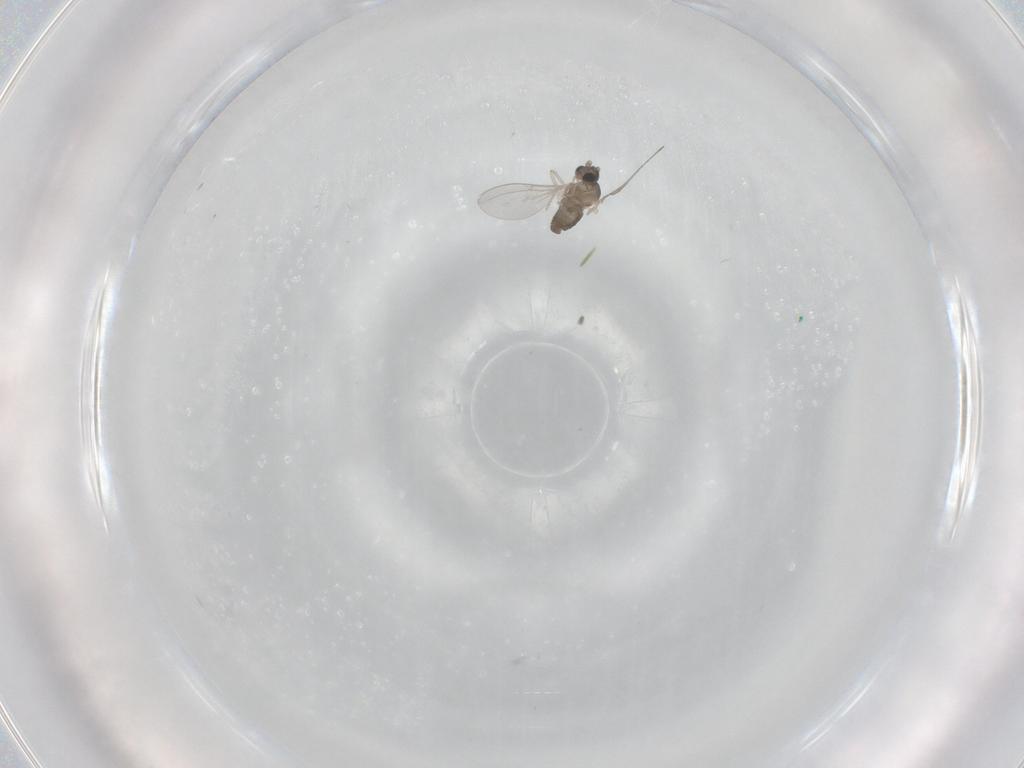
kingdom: Animalia
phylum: Arthropoda
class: Insecta
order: Diptera
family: Cecidomyiidae
